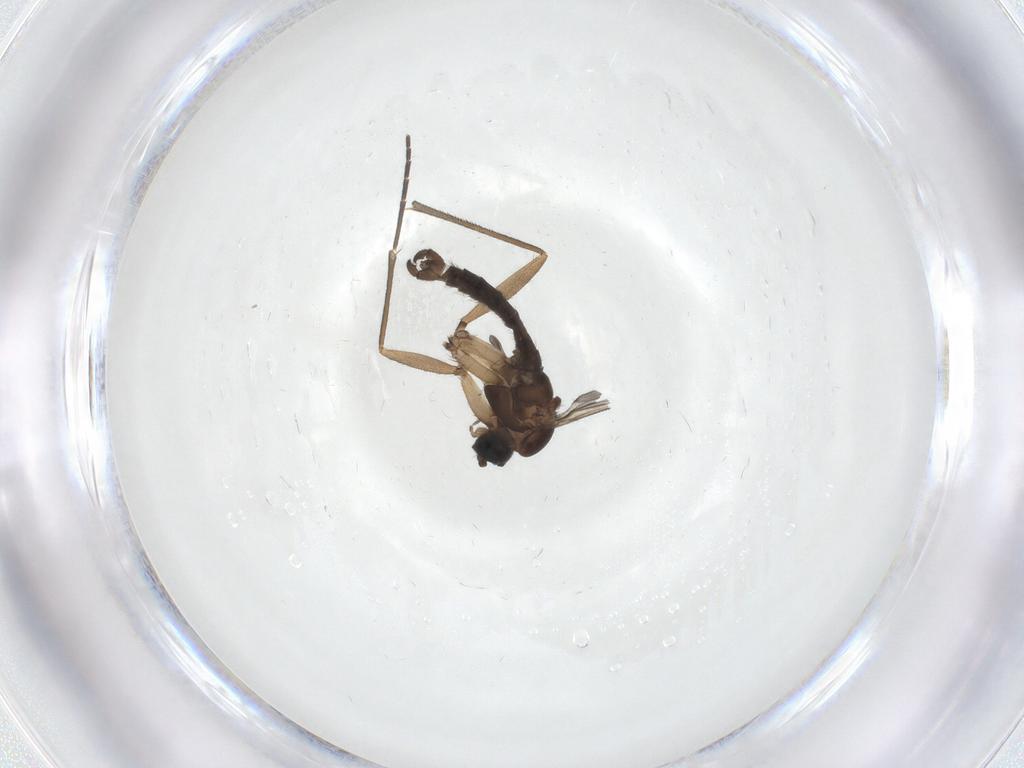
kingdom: Animalia
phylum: Arthropoda
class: Insecta
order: Diptera
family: Sciaridae
